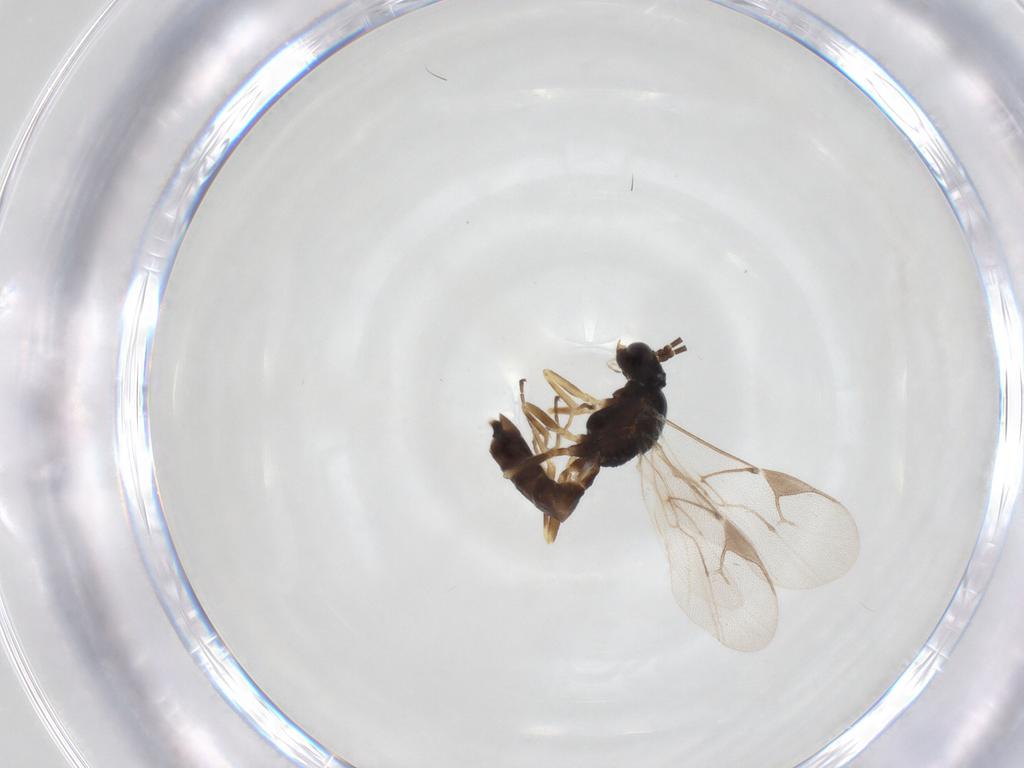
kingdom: Animalia
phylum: Arthropoda
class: Insecta
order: Hymenoptera
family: Braconidae
